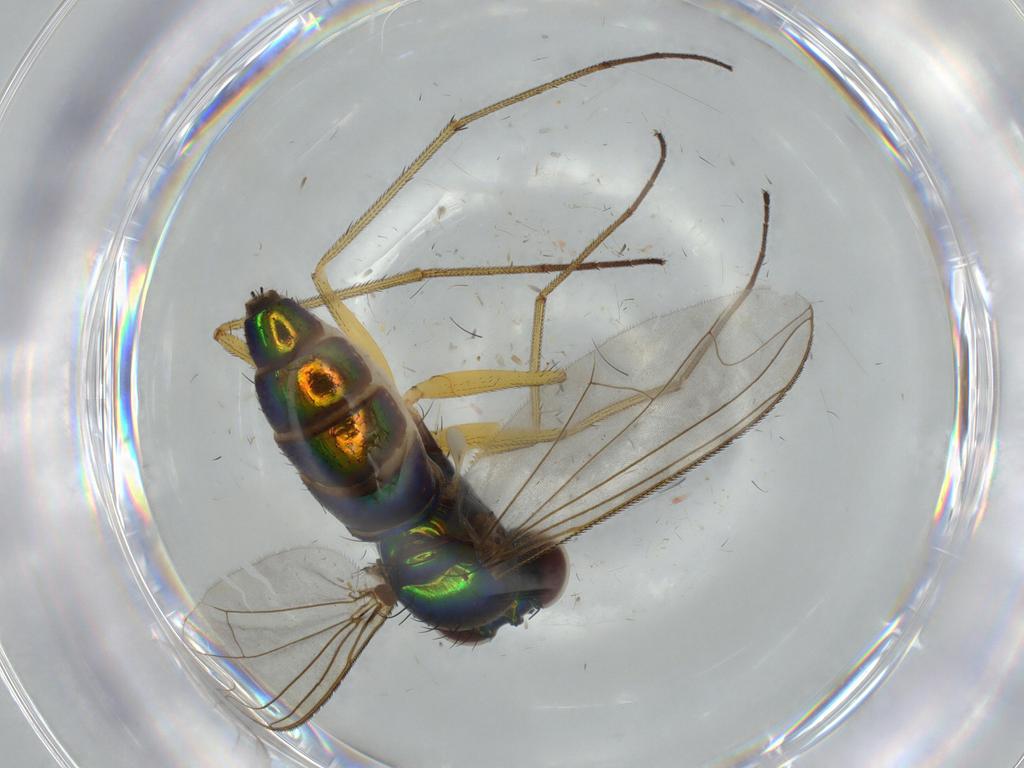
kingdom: Animalia
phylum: Arthropoda
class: Insecta
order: Diptera
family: Dolichopodidae
